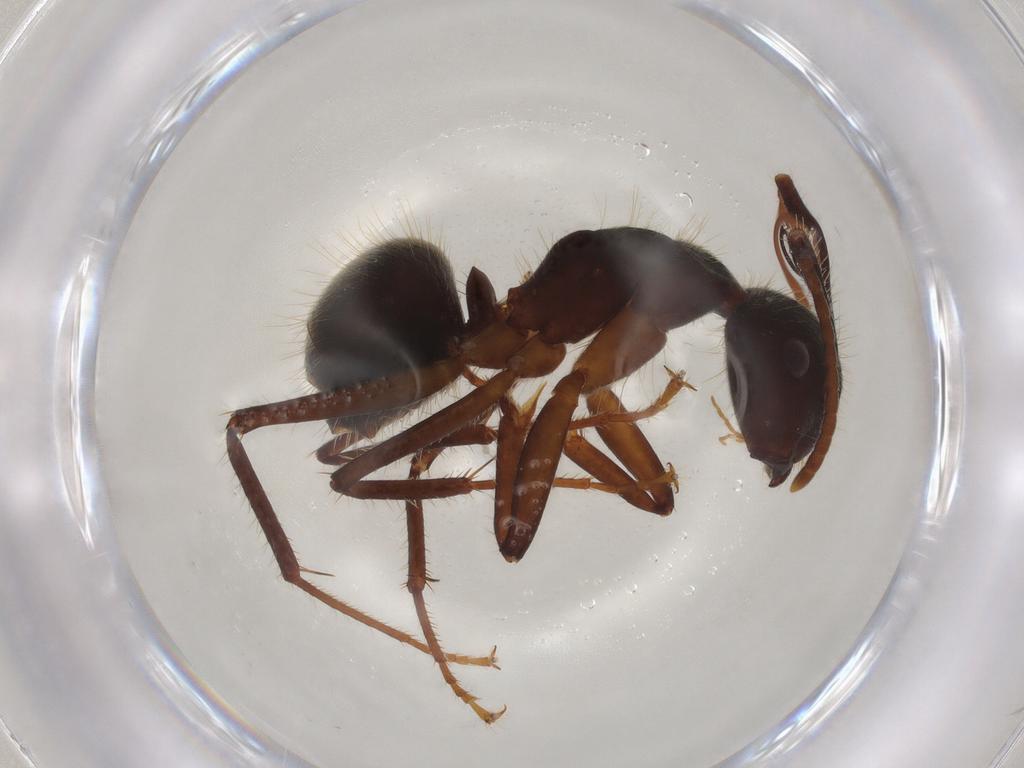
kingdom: Animalia
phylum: Arthropoda
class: Insecta
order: Hymenoptera
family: Formicidae
